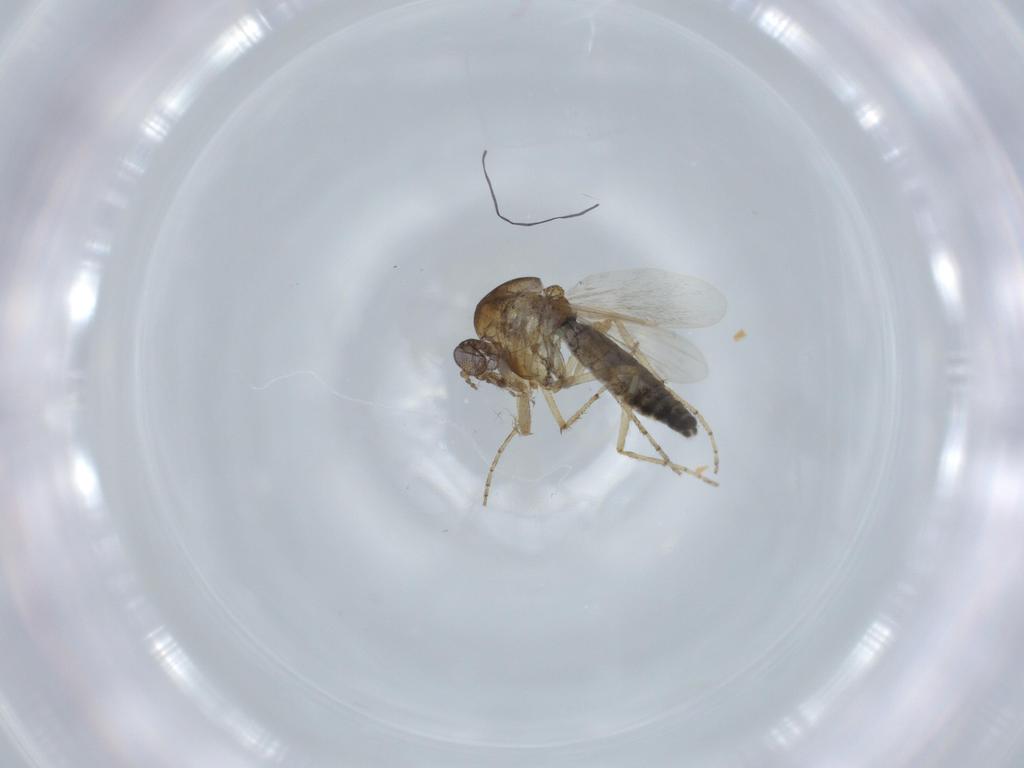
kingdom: Animalia
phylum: Arthropoda
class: Insecta
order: Diptera
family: Ceratopogonidae
